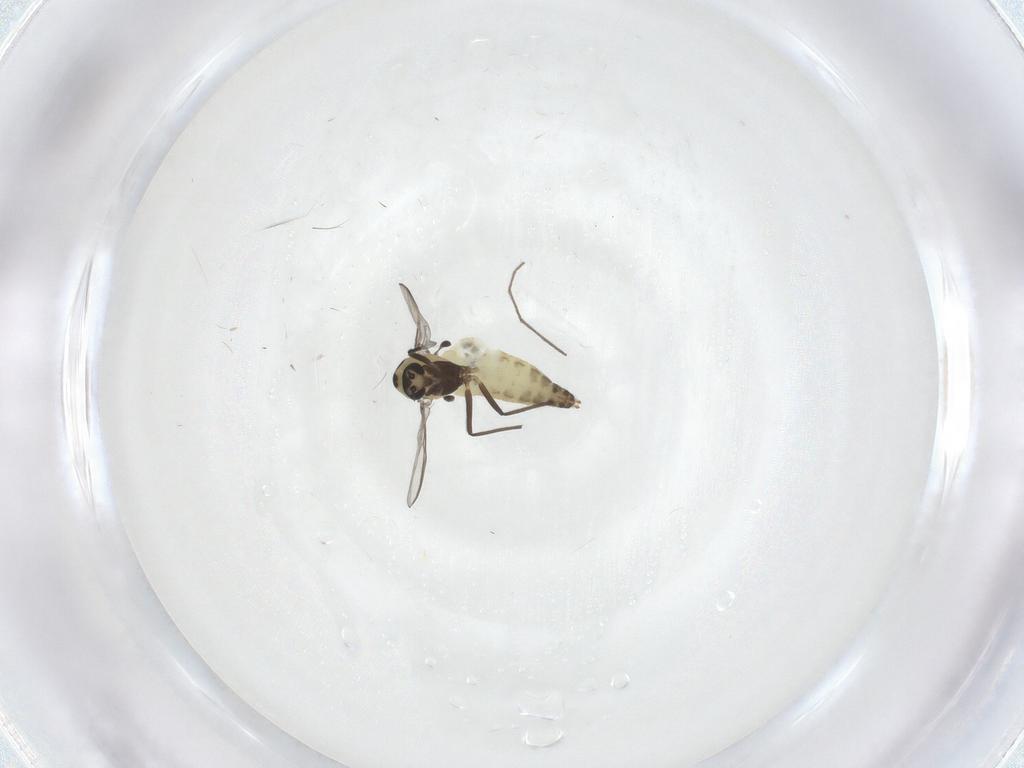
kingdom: Animalia
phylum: Arthropoda
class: Insecta
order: Diptera
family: Chironomidae
